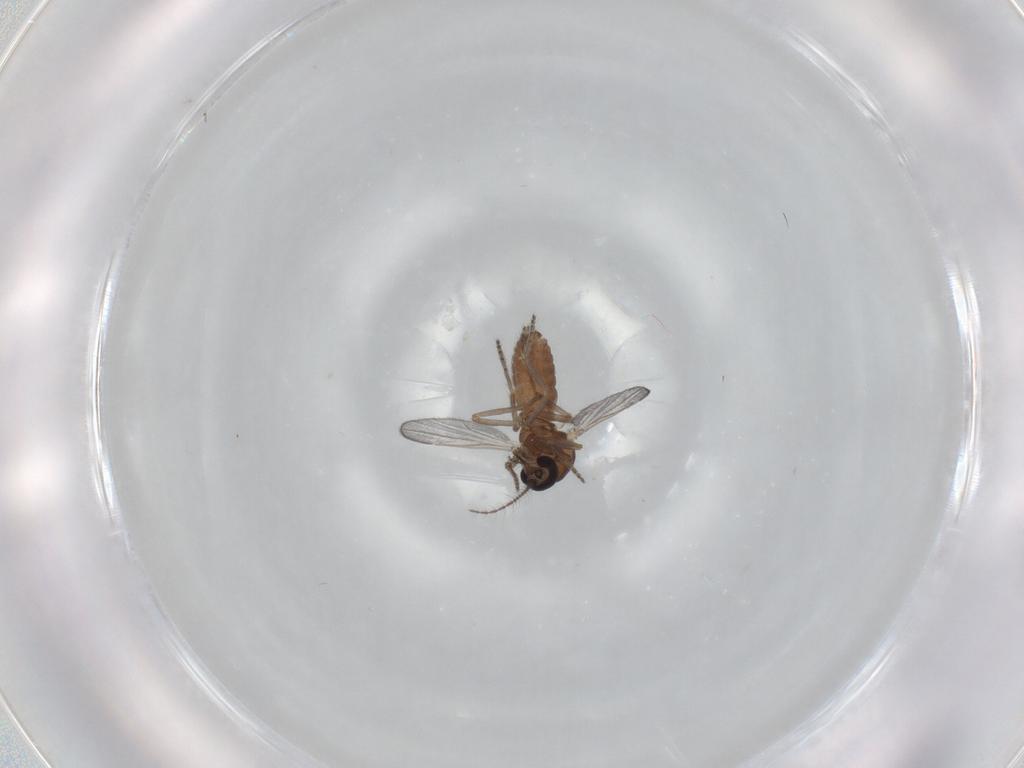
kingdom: Animalia
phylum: Arthropoda
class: Insecta
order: Diptera
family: Ceratopogonidae
